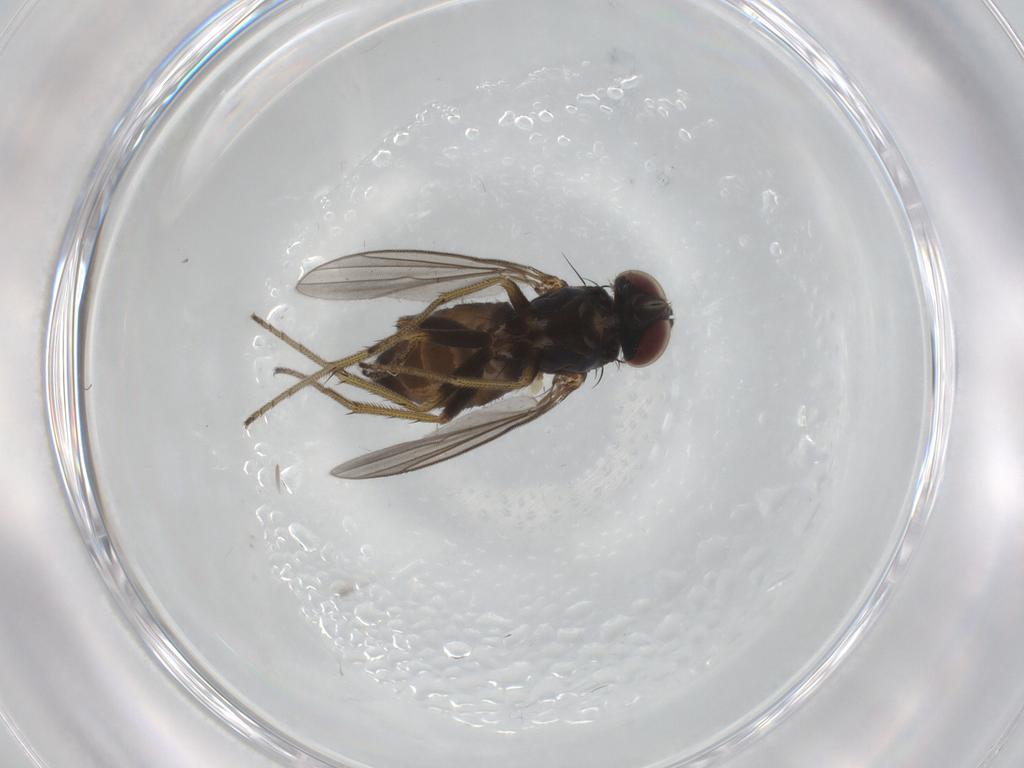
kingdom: Animalia
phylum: Arthropoda
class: Insecta
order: Diptera
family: Dolichopodidae
